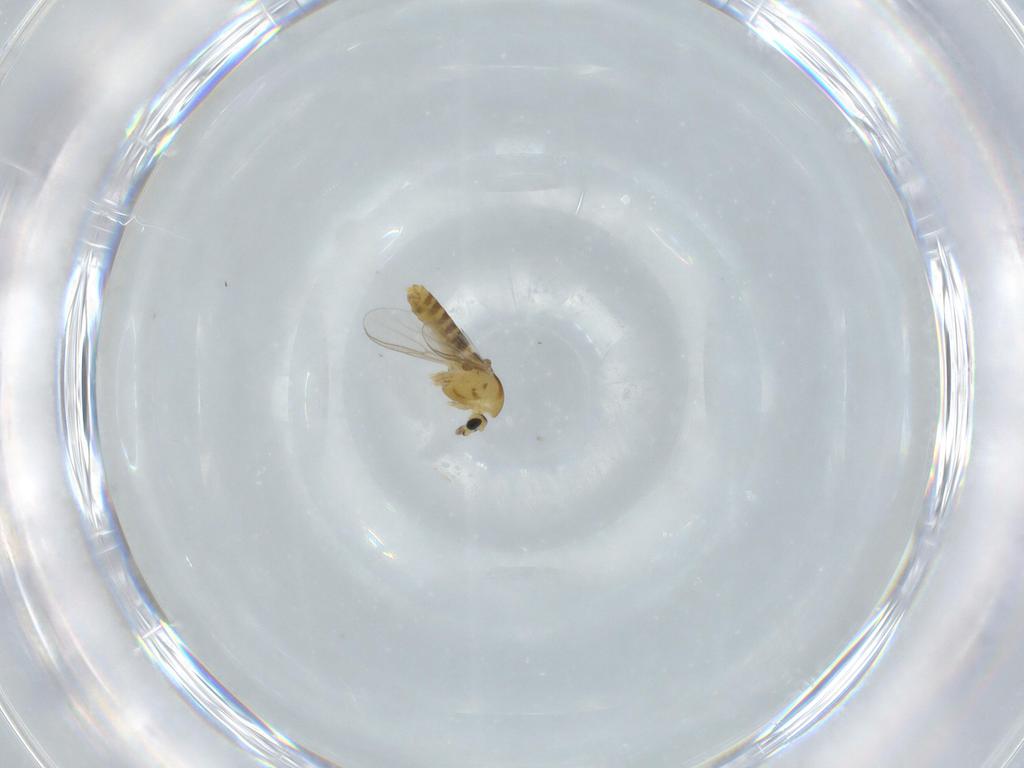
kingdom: Animalia
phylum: Arthropoda
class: Insecta
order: Diptera
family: Chironomidae
